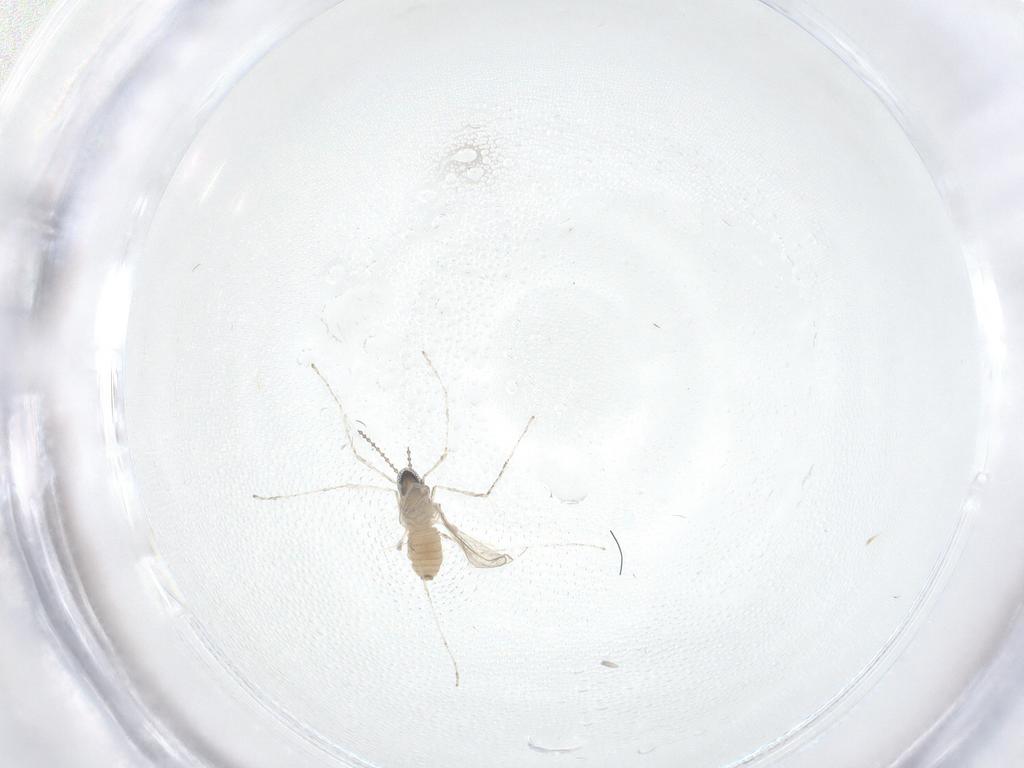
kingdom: Animalia
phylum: Arthropoda
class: Insecta
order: Diptera
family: Cecidomyiidae
